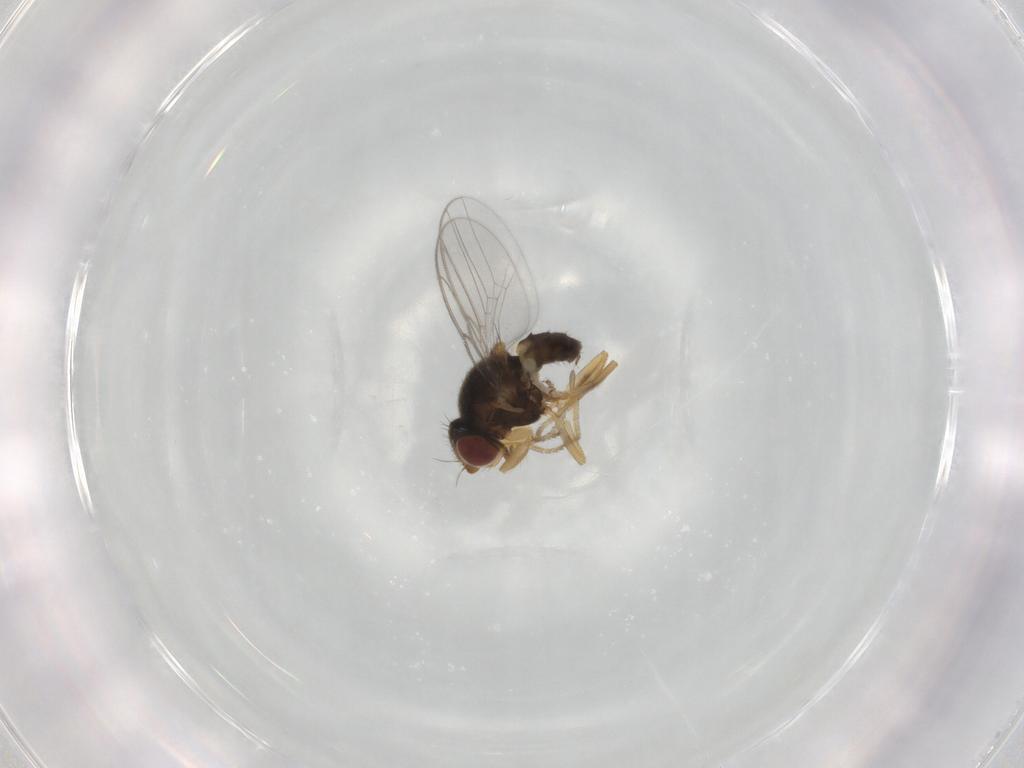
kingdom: Animalia
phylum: Arthropoda
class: Insecta
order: Diptera
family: Chloropidae
